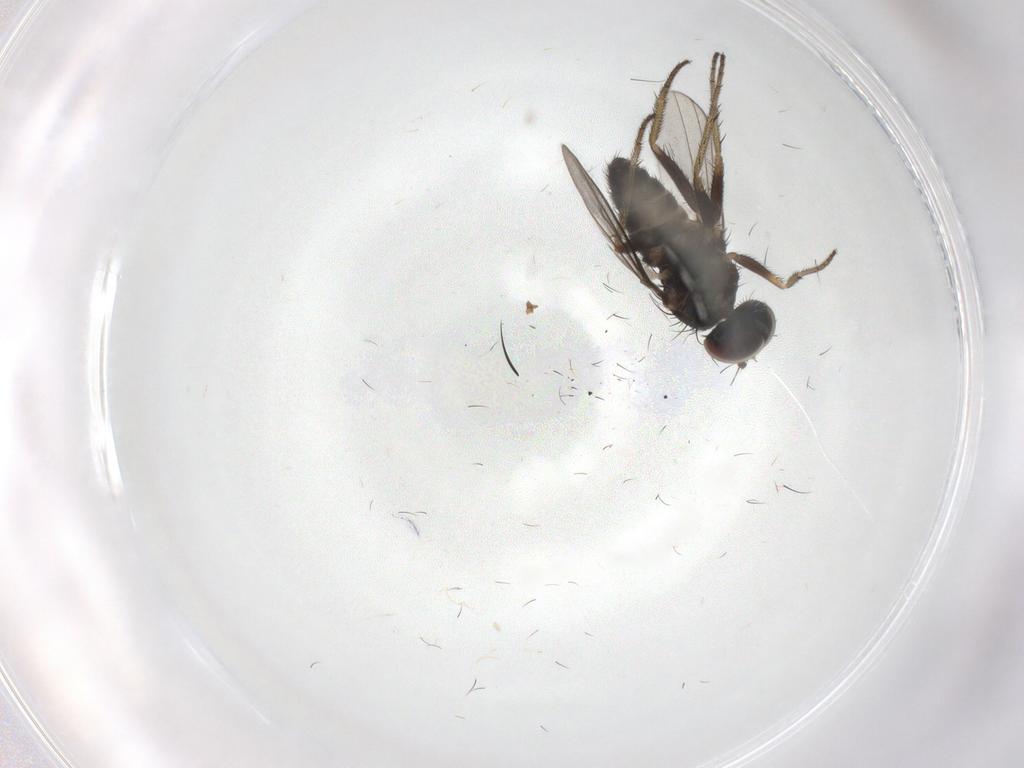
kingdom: Animalia
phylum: Arthropoda
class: Insecta
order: Diptera
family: Dolichopodidae
